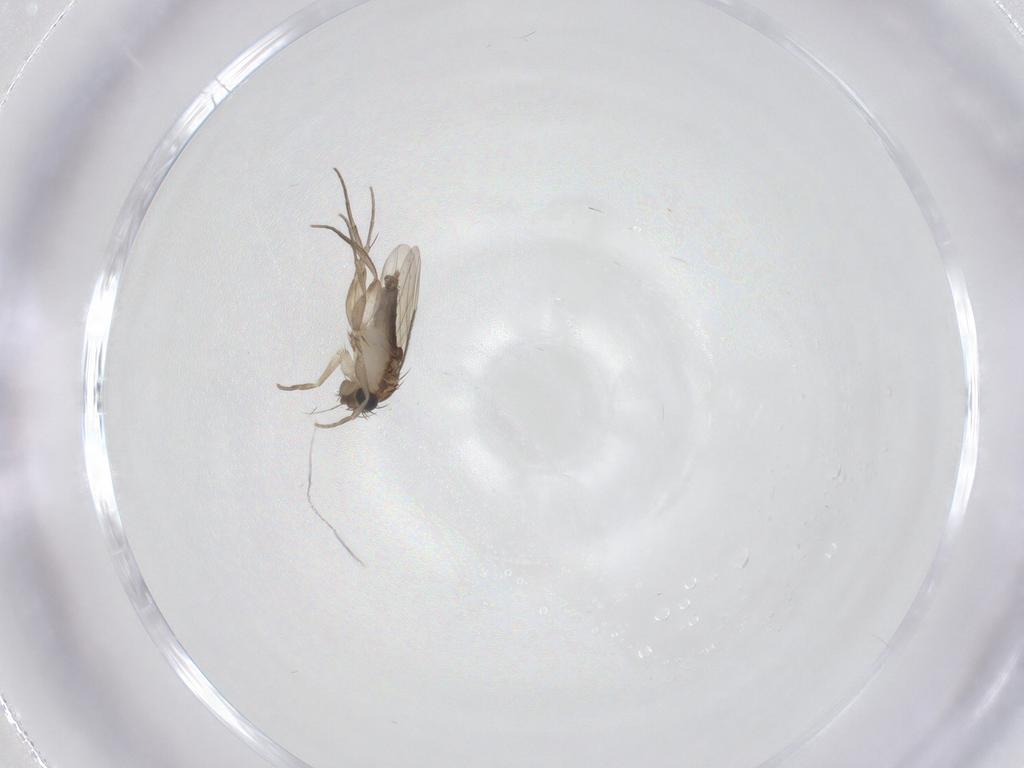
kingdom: Animalia
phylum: Arthropoda
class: Insecta
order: Diptera
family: Phoridae
